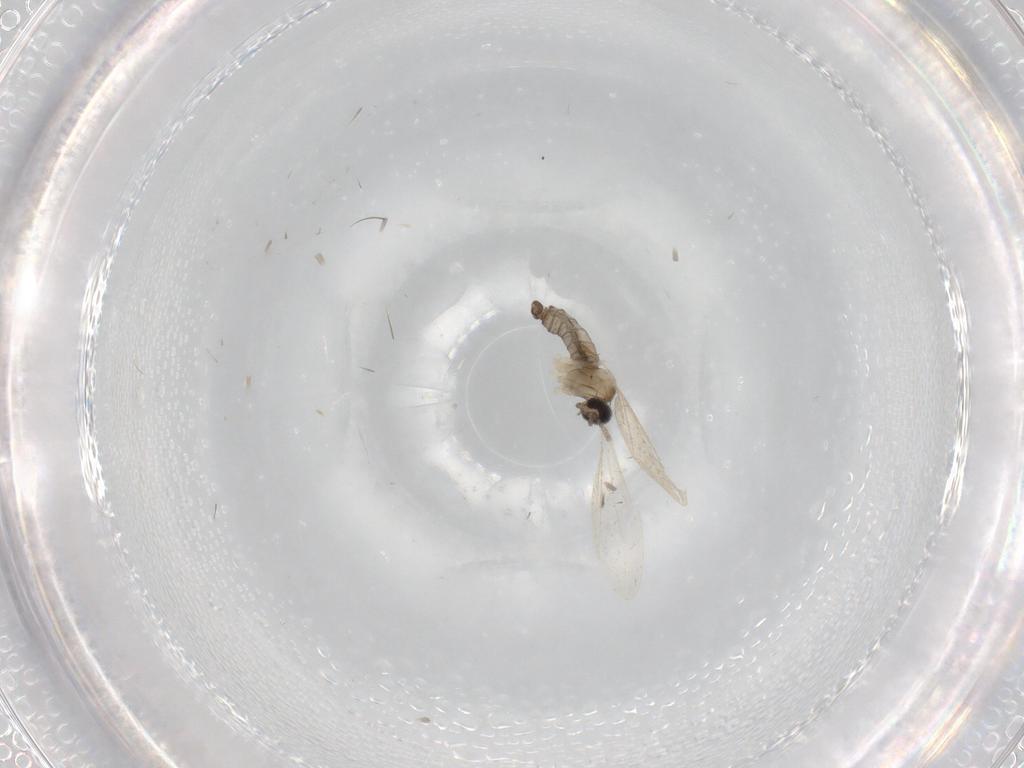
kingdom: Animalia
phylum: Arthropoda
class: Insecta
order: Diptera
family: Cecidomyiidae
